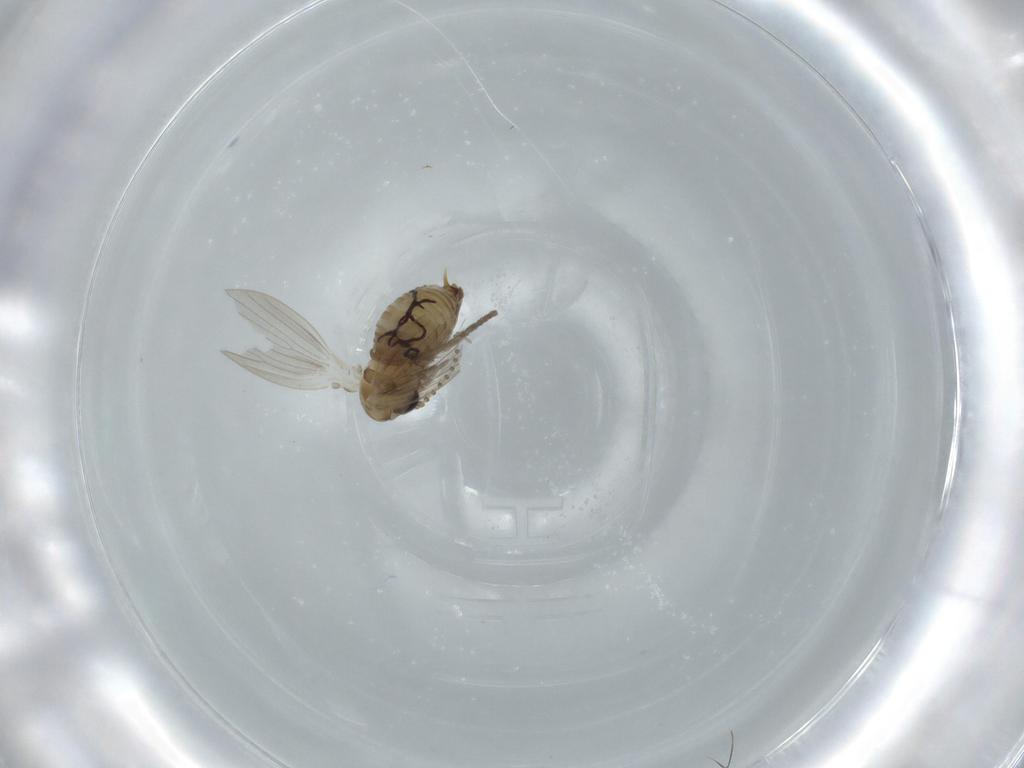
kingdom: Animalia
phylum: Arthropoda
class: Insecta
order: Diptera
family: Psychodidae
